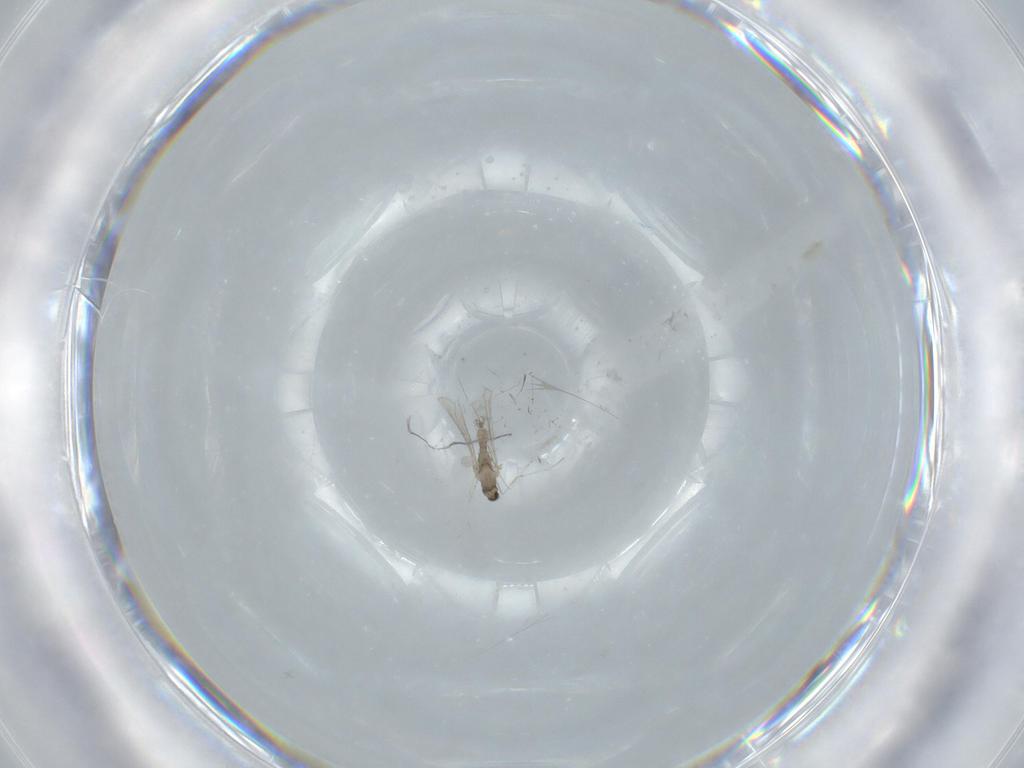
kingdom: Animalia
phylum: Arthropoda
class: Insecta
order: Diptera
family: Cecidomyiidae
